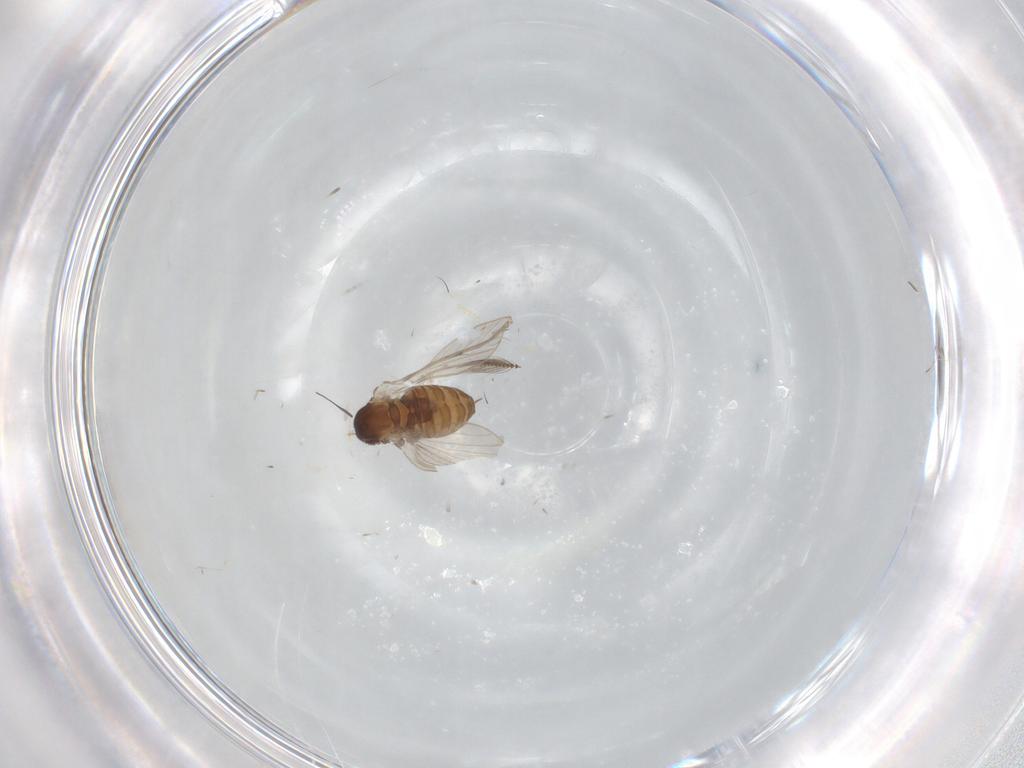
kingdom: Animalia
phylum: Arthropoda
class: Insecta
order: Diptera
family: Psychodidae
